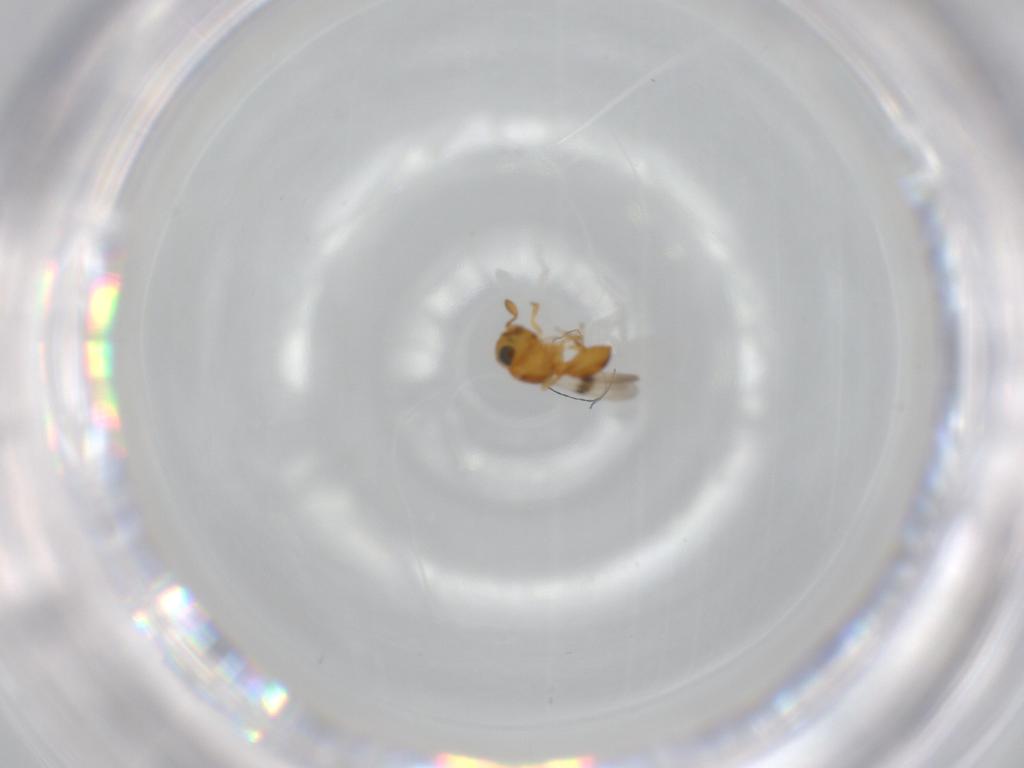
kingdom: Animalia
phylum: Arthropoda
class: Insecta
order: Hymenoptera
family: Scelionidae
